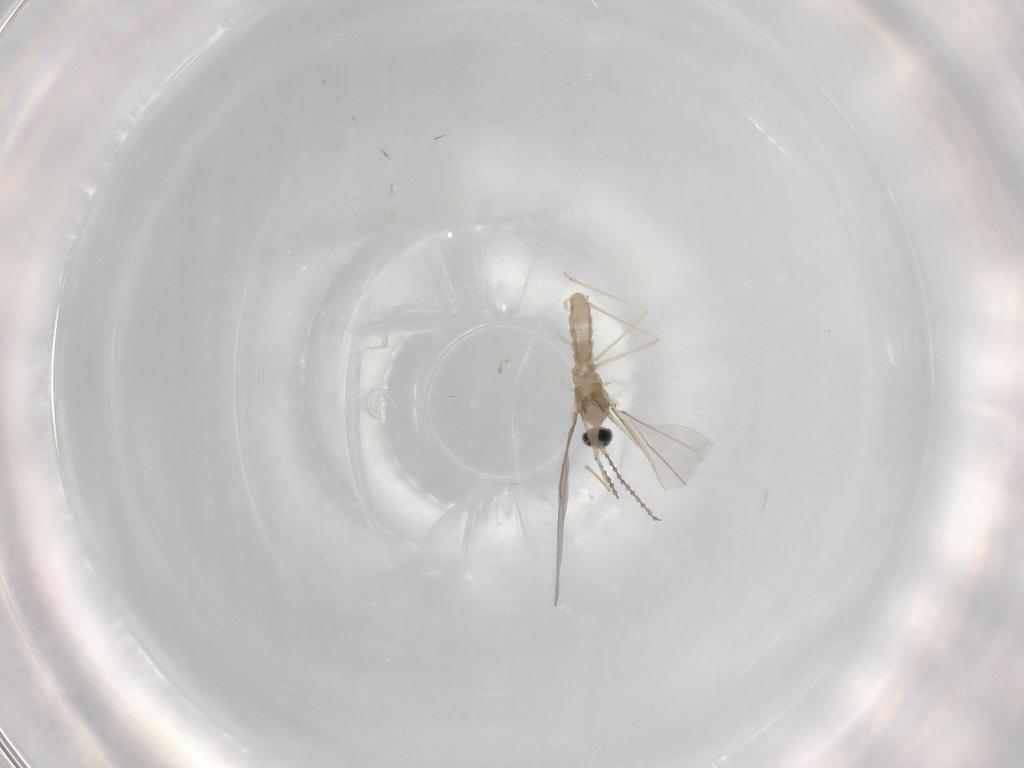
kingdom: Animalia
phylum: Arthropoda
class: Insecta
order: Diptera
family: Cecidomyiidae
